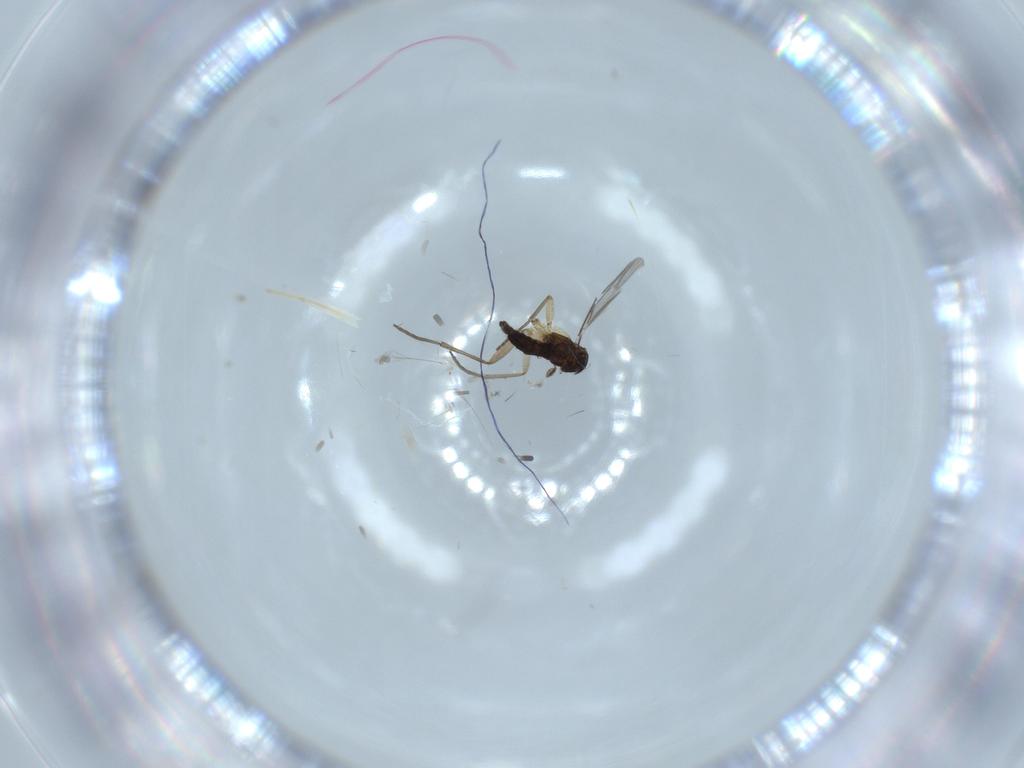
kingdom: Animalia
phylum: Arthropoda
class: Insecta
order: Diptera
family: Sciaridae
